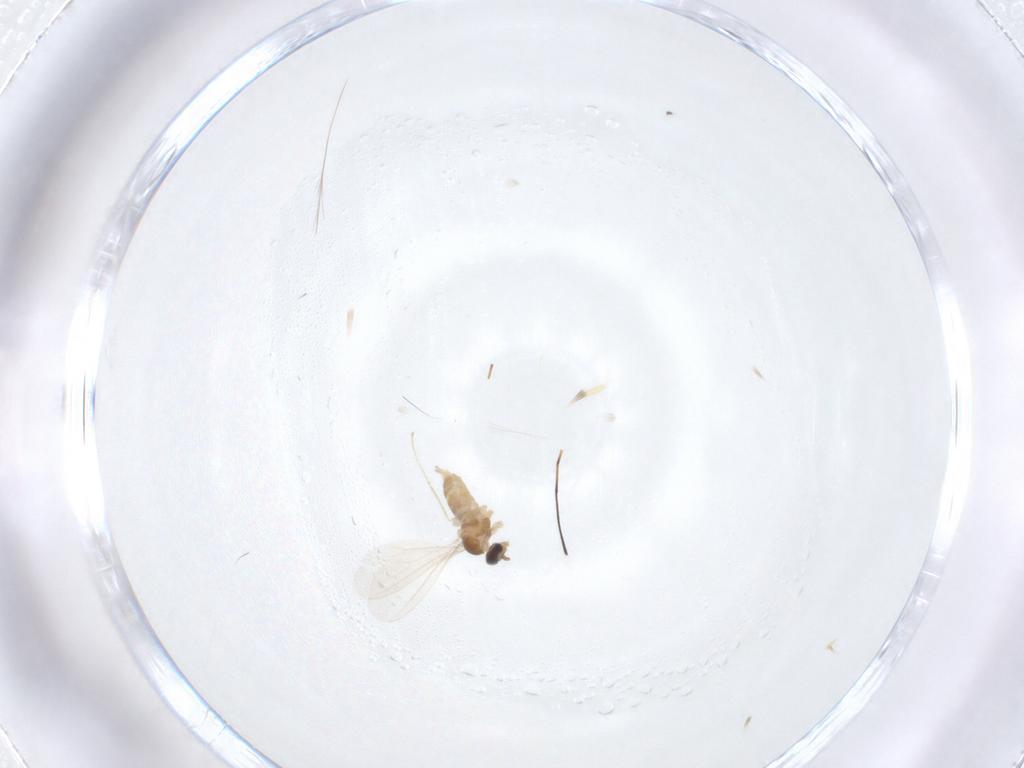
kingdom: Animalia
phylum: Arthropoda
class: Insecta
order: Diptera
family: Cecidomyiidae
